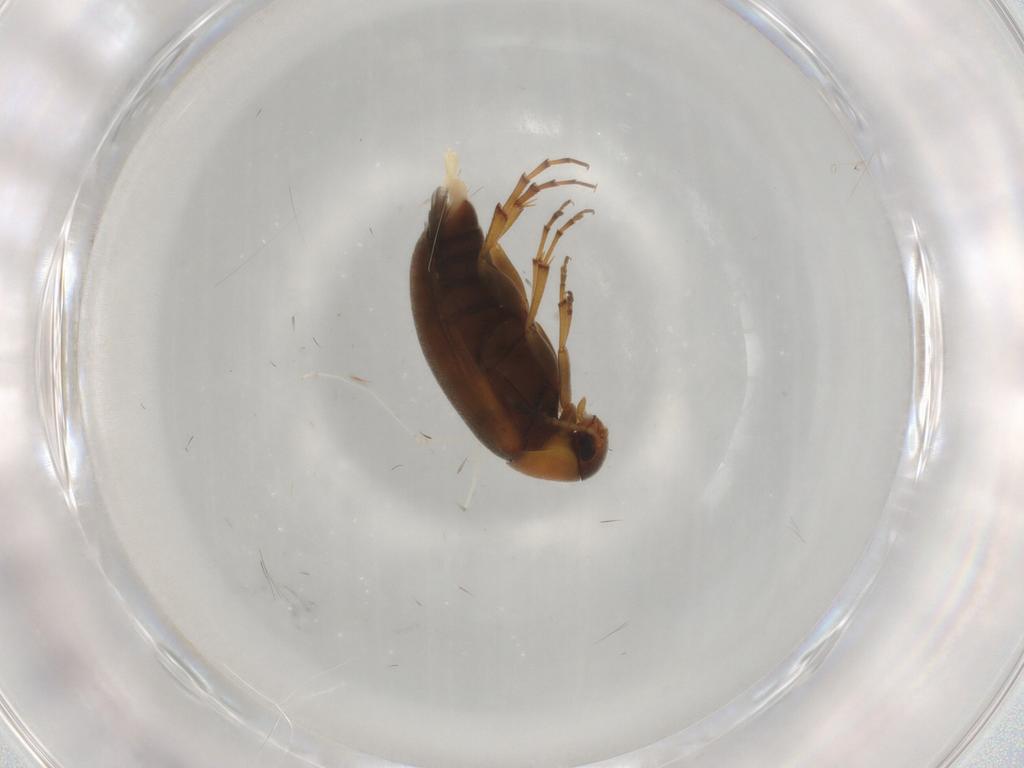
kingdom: Animalia
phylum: Arthropoda
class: Insecta
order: Coleoptera
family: Scraptiidae
